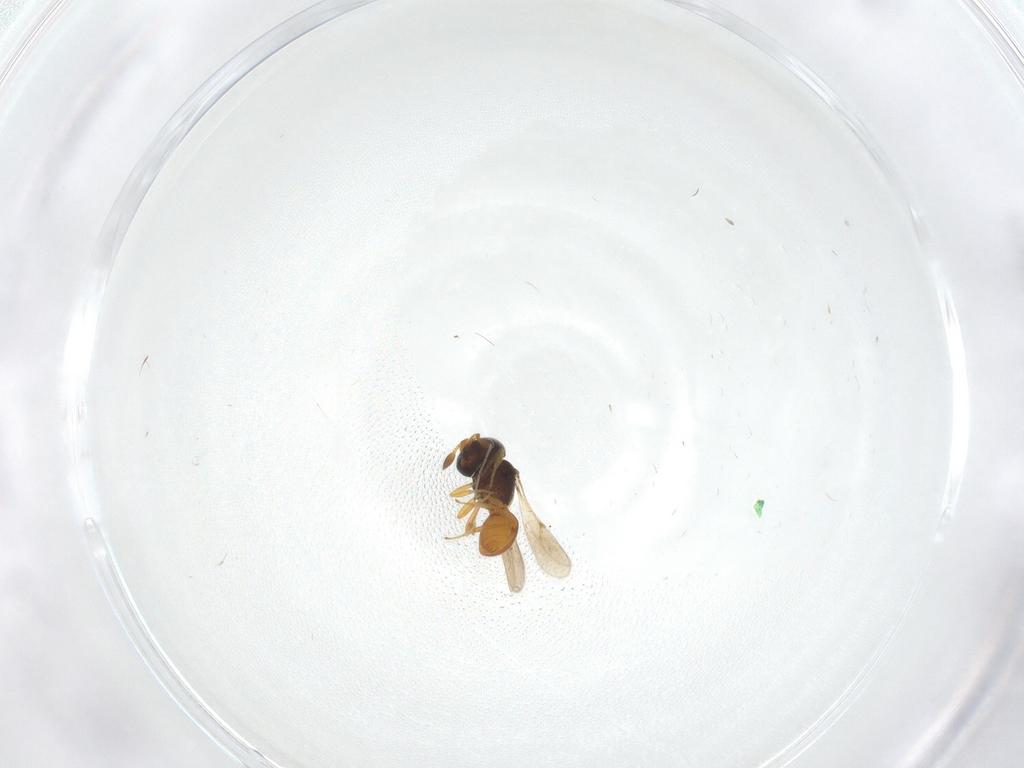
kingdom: Animalia
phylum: Arthropoda
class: Insecta
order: Hymenoptera
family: Scelionidae
